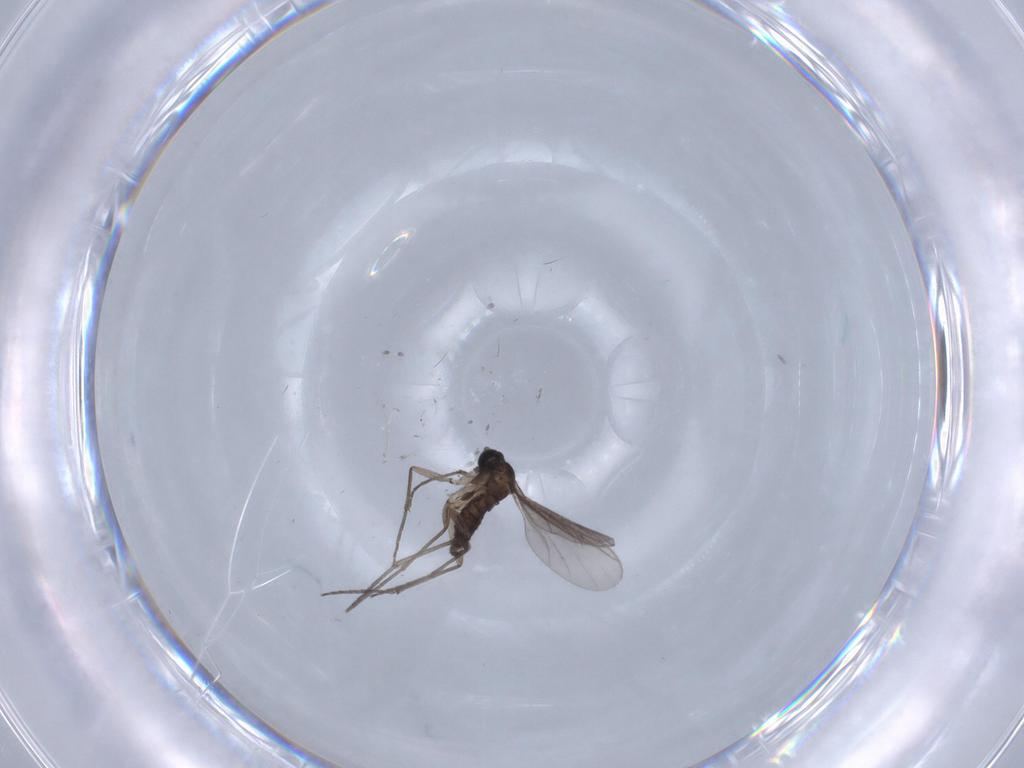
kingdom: Animalia
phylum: Arthropoda
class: Insecta
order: Diptera
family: Sciaridae
